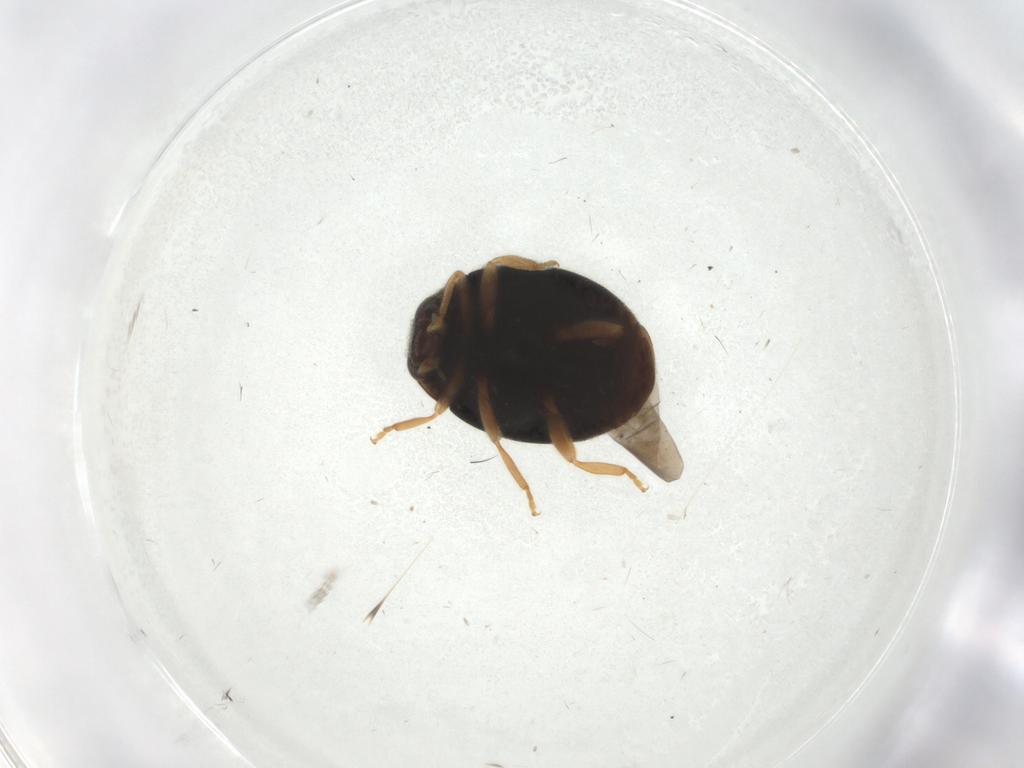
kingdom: Animalia
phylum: Arthropoda
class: Insecta
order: Coleoptera
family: Coccinellidae
